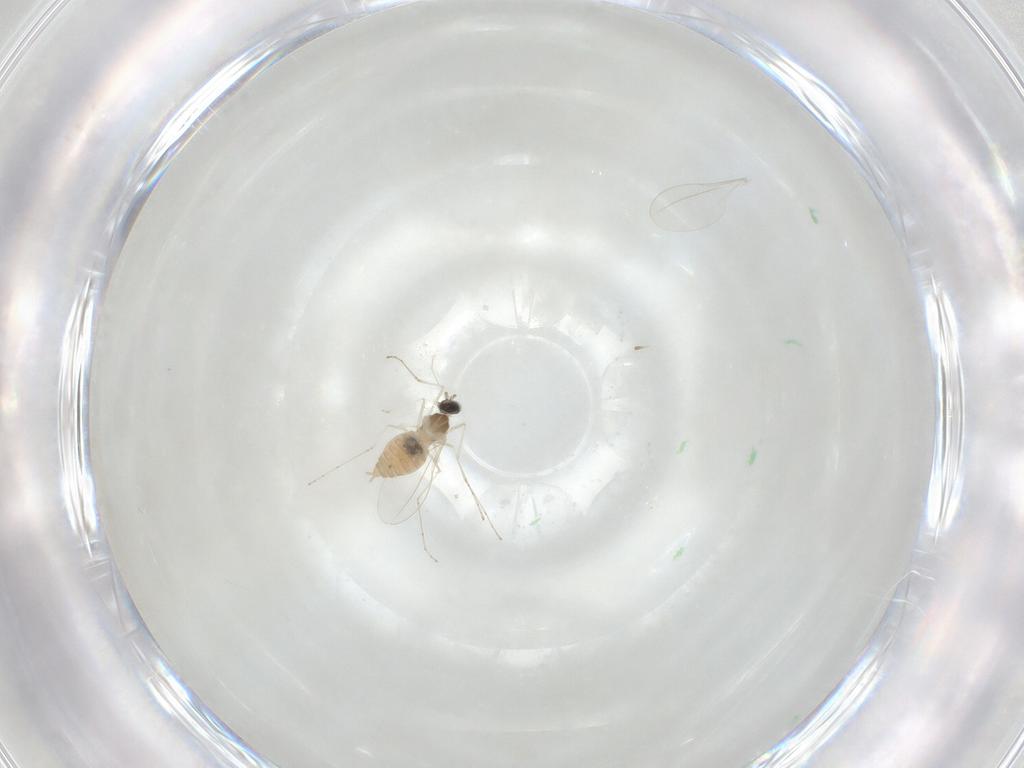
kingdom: Animalia
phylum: Arthropoda
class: Insecta
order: Diptera
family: Cecidomyiidae
